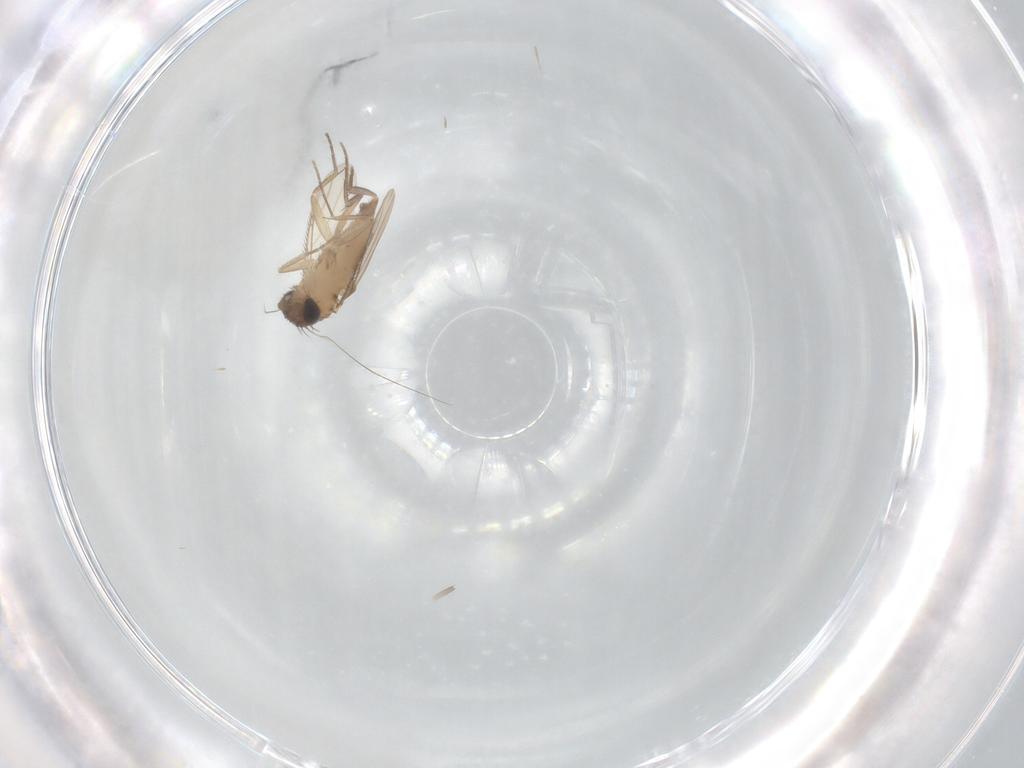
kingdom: Animalia
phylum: Arthropoda
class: Insecta
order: Diptera
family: Phoridae
